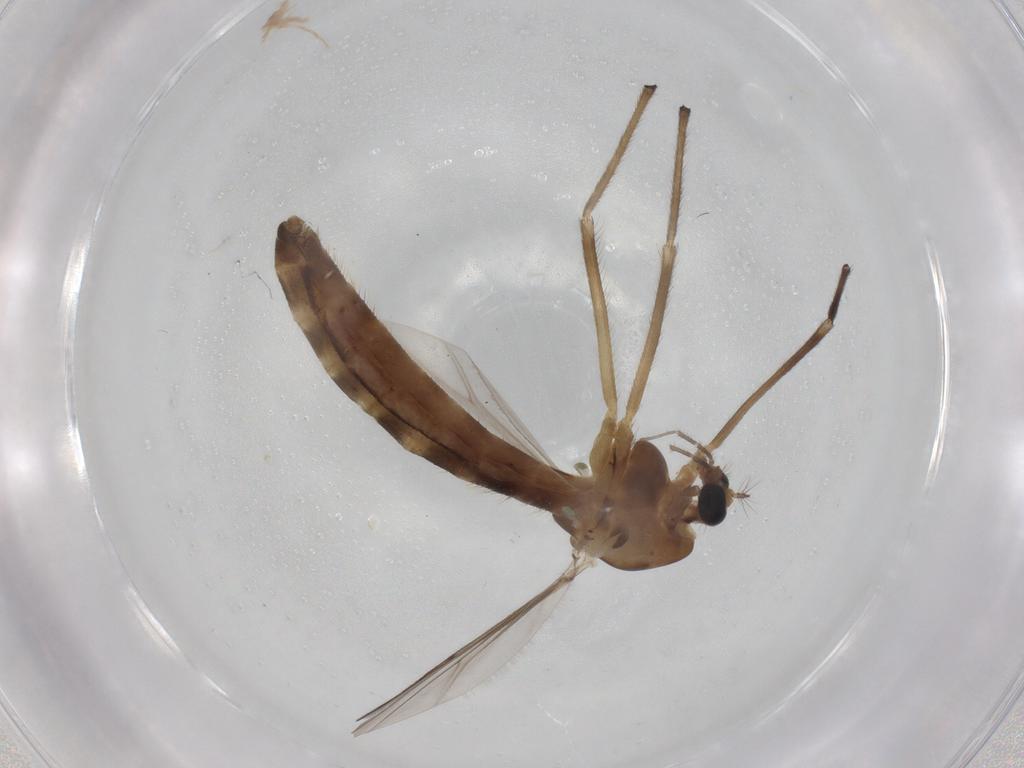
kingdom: Animalia
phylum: Arthropoda
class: Insecta
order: Diptera
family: Chironomidae
